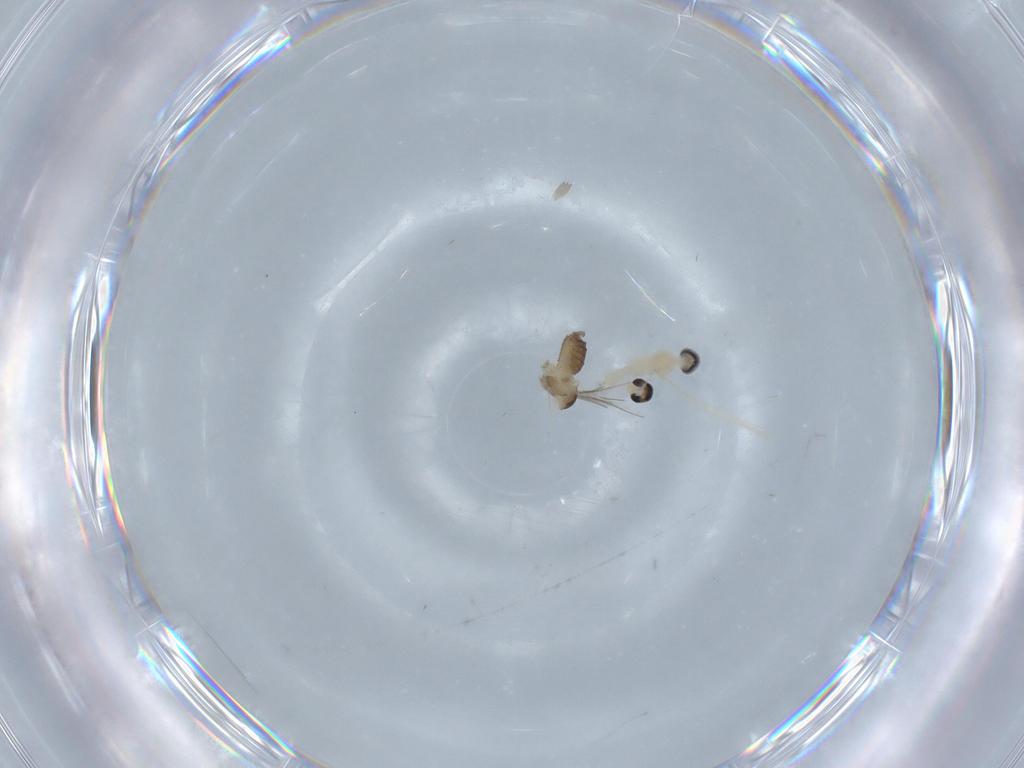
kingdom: Animalia
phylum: Arthropoda
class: Insecta
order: Diptera
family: Cecidomyiidae
